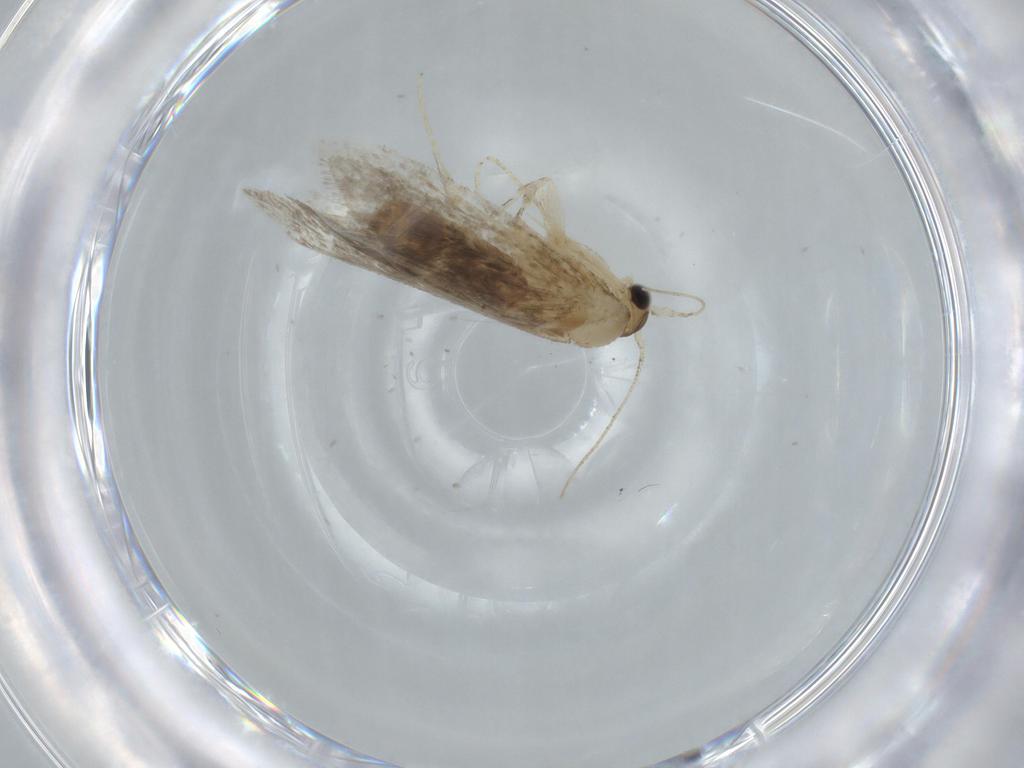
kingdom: Animalia
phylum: Arthropoda
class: Insecta
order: Lepidoptera
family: Tineidae
